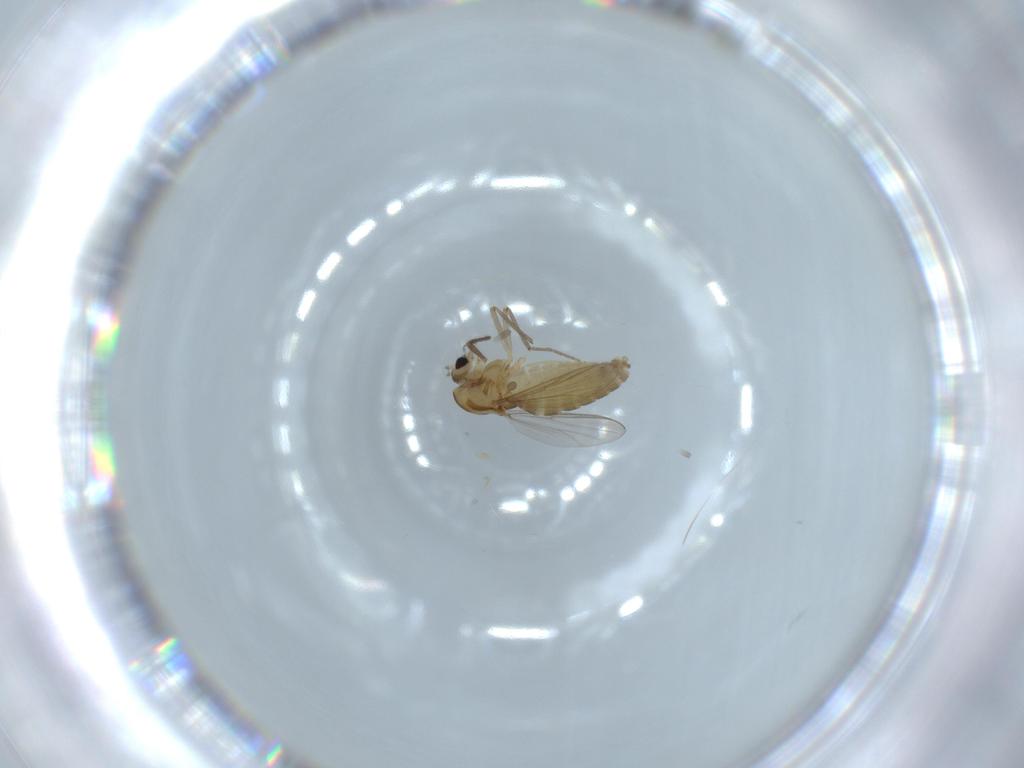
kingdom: Animalia
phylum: Arthropoda
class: Insecta
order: Diptera
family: Chironomidae
